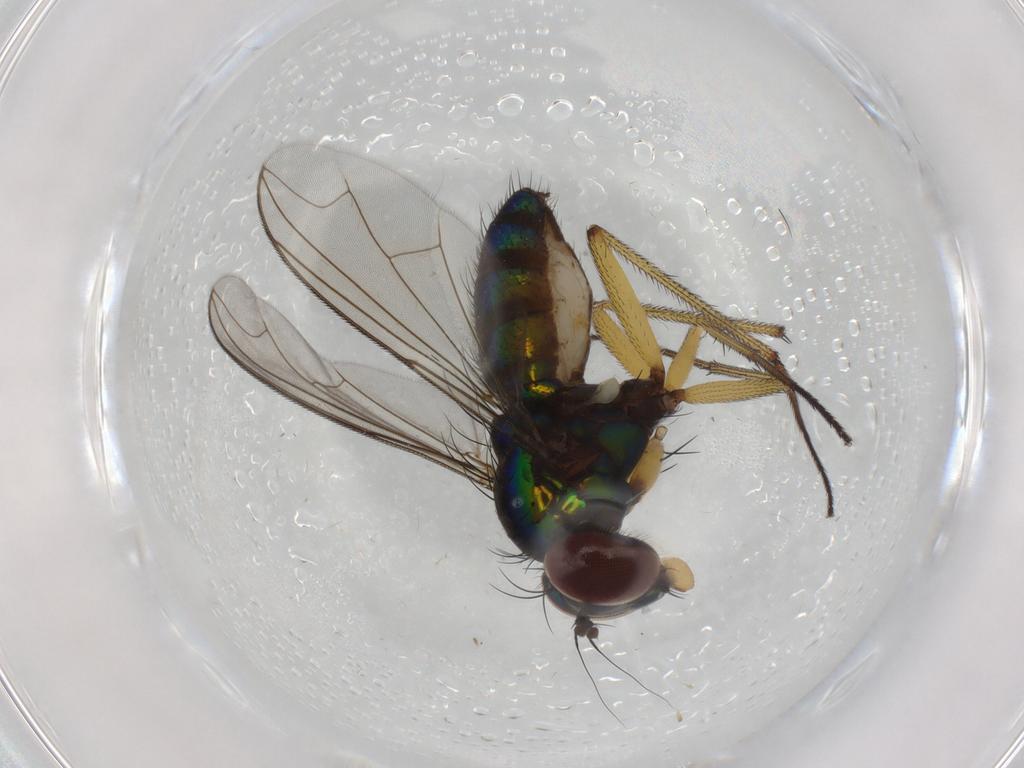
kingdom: Animalia
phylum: Arthropoda
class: Insecta
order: Diptera
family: Dolichopodidae
